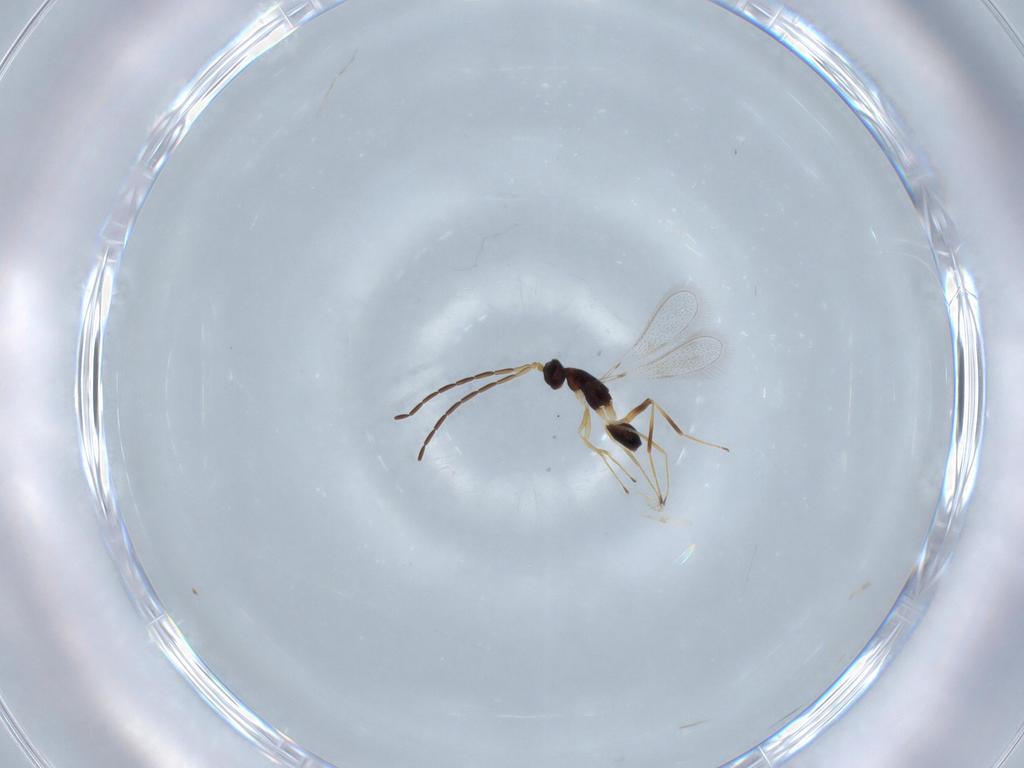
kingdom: Animalia
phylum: Arthropoda
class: Insecta
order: Hymenoptera
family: Mymaridae
